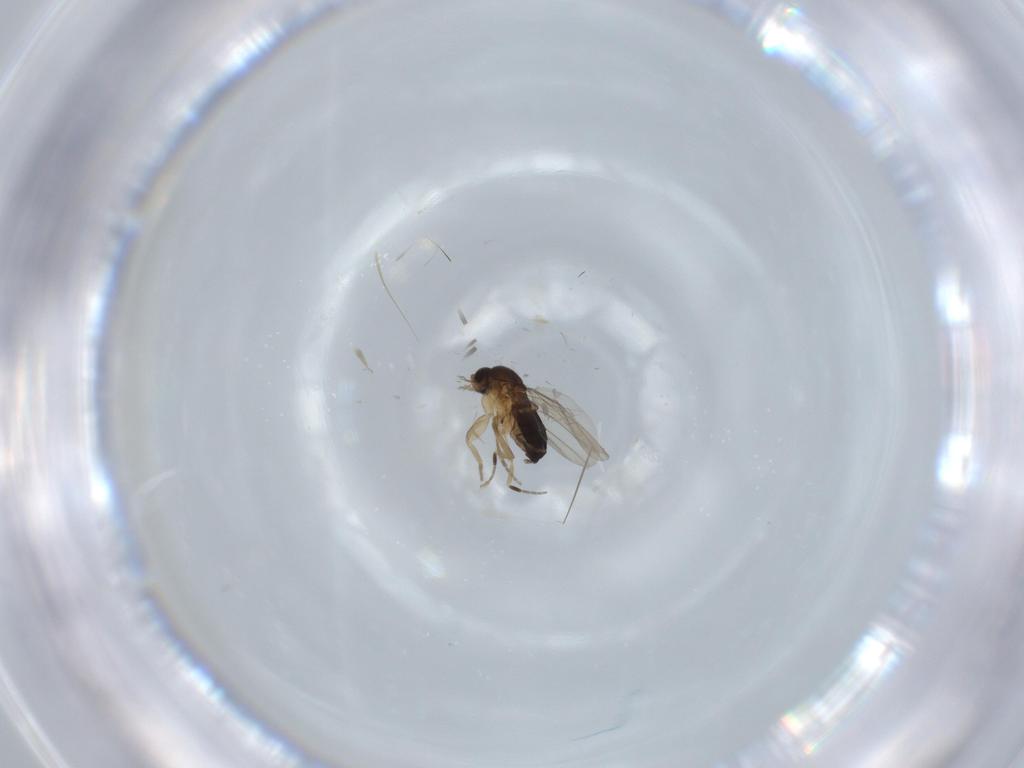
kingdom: Animalia
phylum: Arthropoda
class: Insecta
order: Diptera
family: Phoridae
